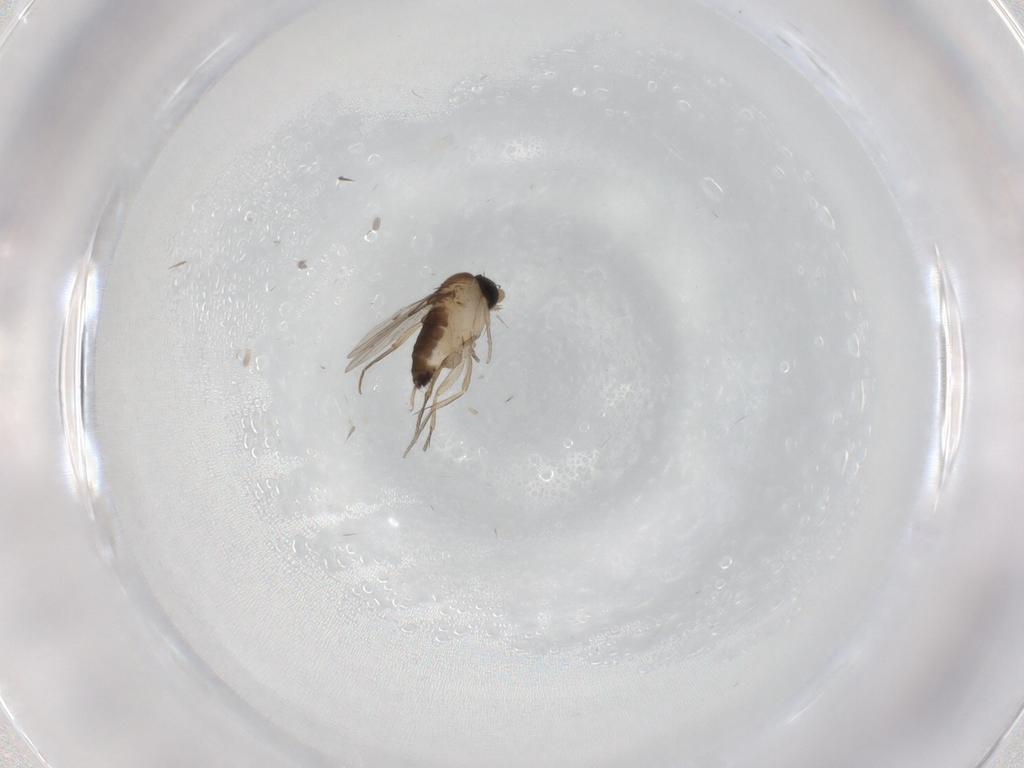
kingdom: Animalia
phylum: Arthropoda
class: Insecta
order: Diptera
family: Phoridae
